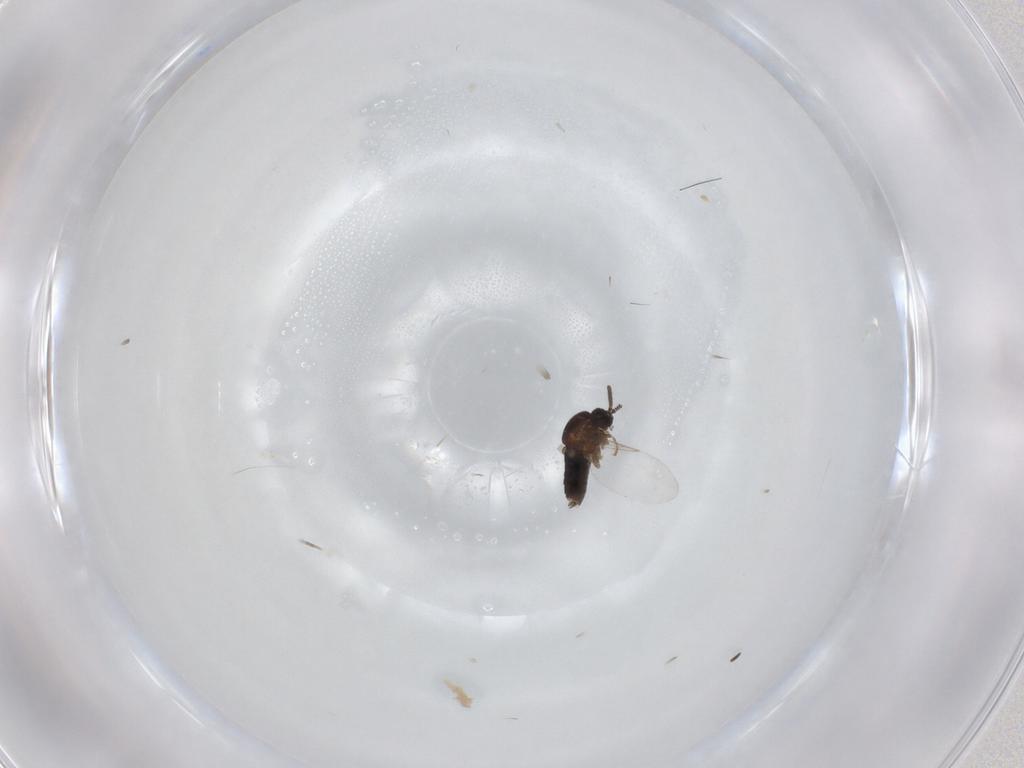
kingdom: Animalia
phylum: Arthropoda
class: Insecta
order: Diptera
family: Scatopsidae
